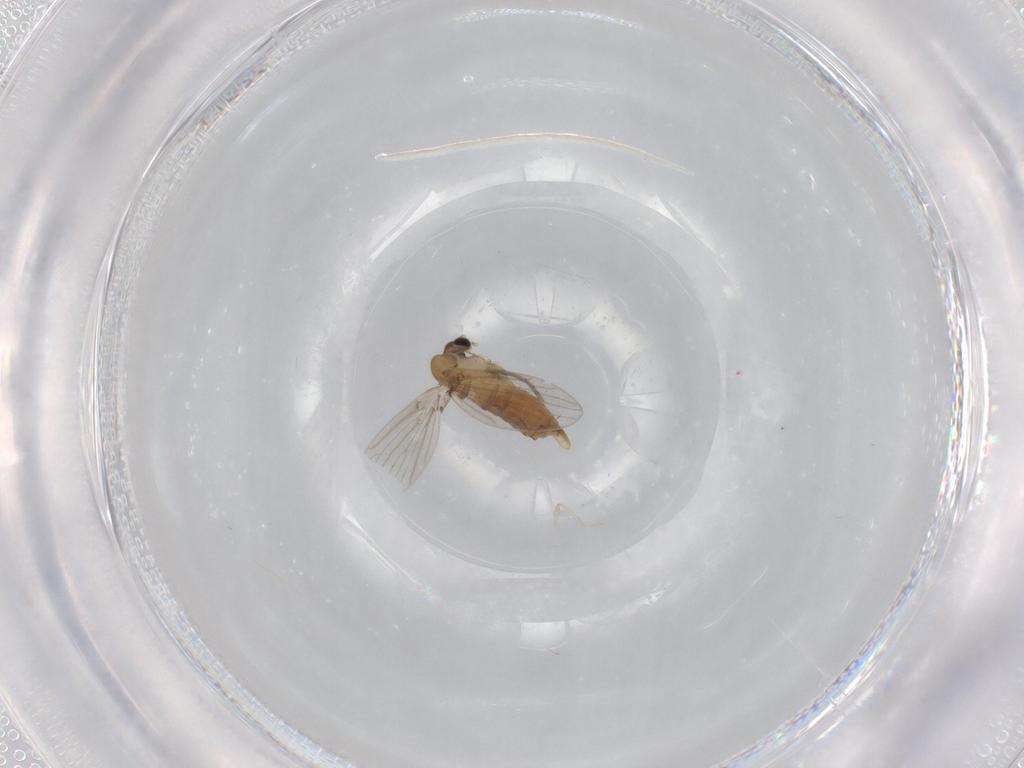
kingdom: Animalia
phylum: Arthropoda
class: Insecta
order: Diptera
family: Psychodidae
